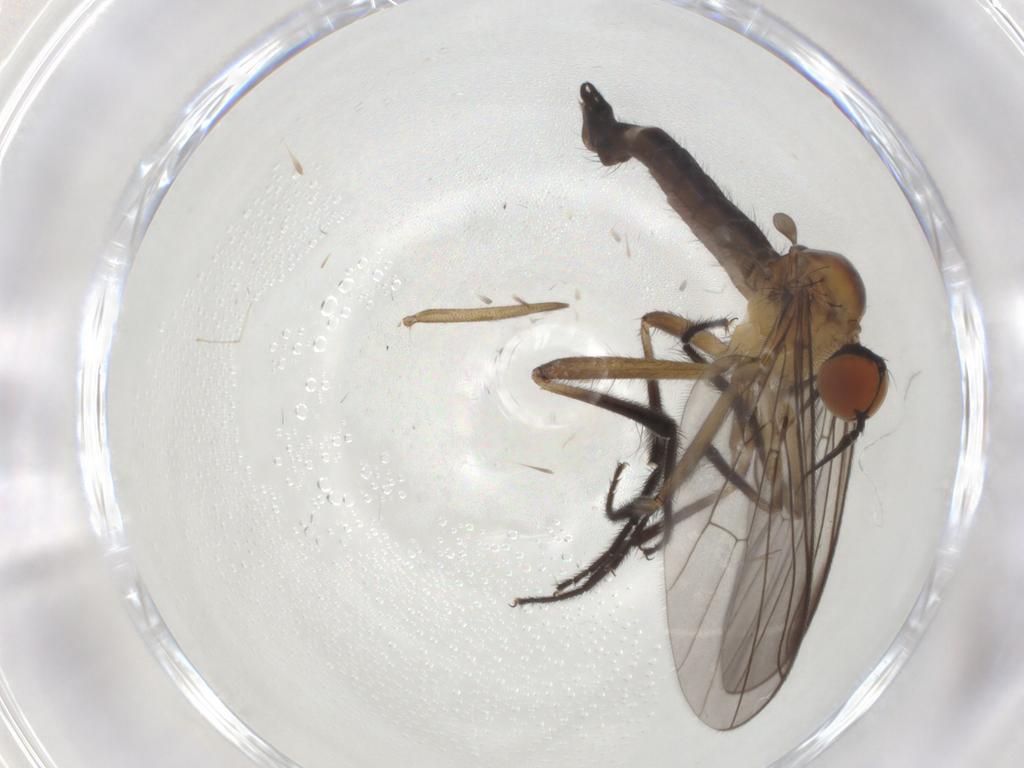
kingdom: Animalia
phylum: Arthropoda
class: Insecta
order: Diptera
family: Empididae
